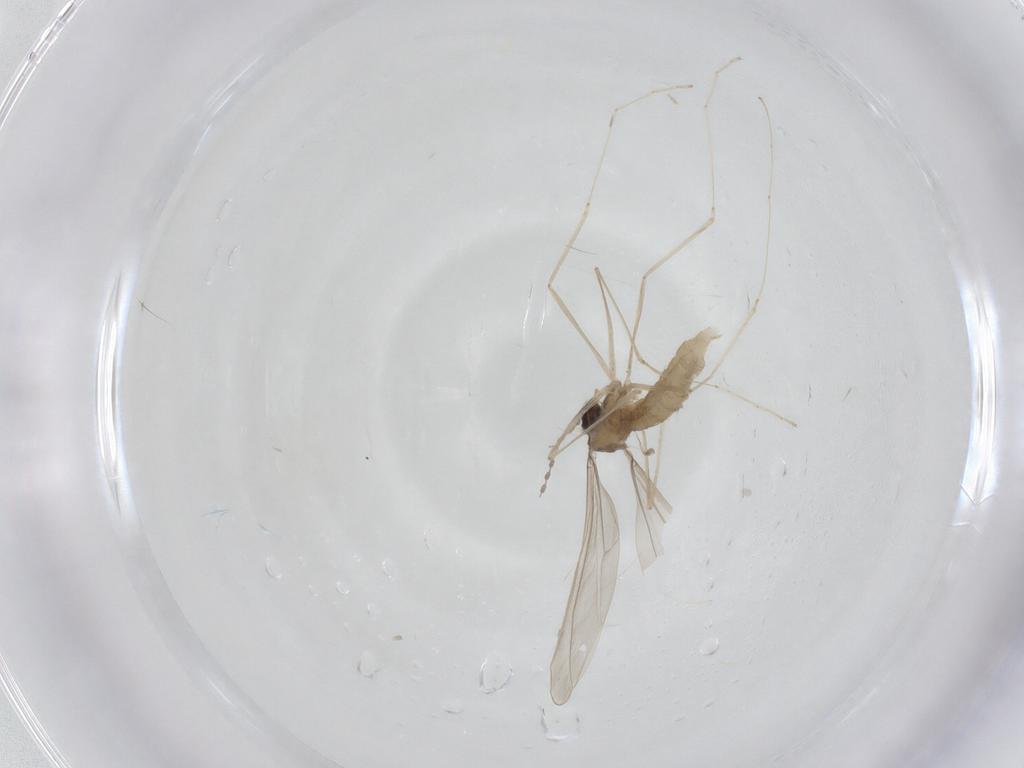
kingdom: Animalia
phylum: Arthropoda
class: Insecta
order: Diptera
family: Cecidomyiidae
